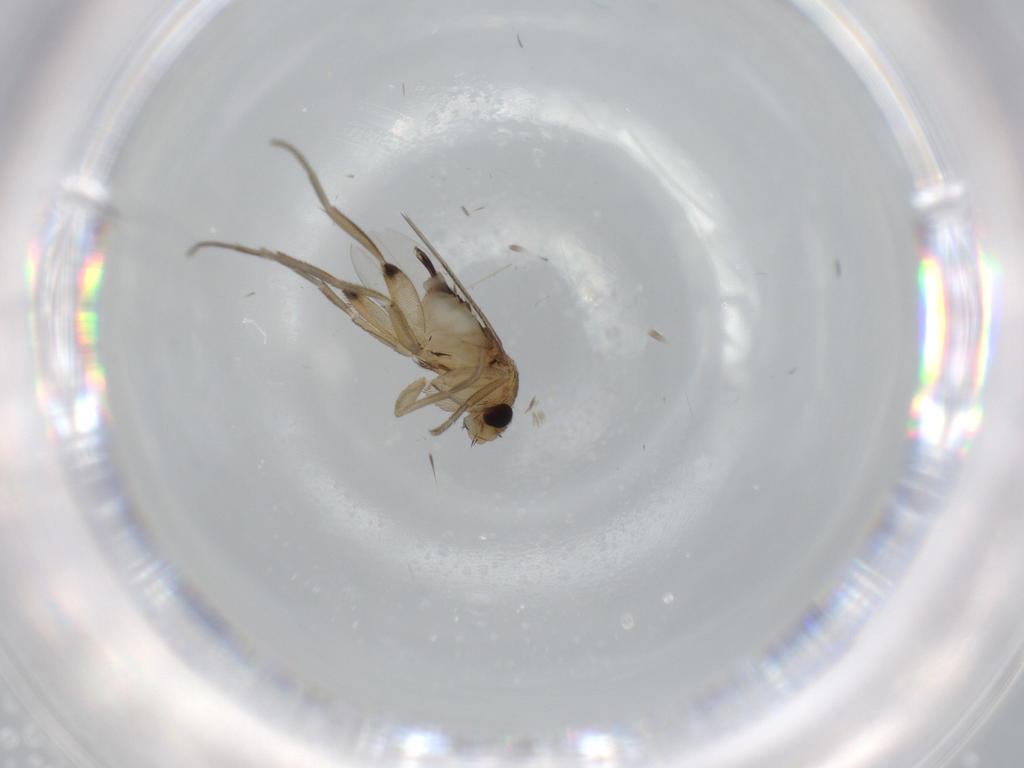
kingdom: Animalia
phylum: Arthropoda
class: Insecta
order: Diptera
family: Phoridae
